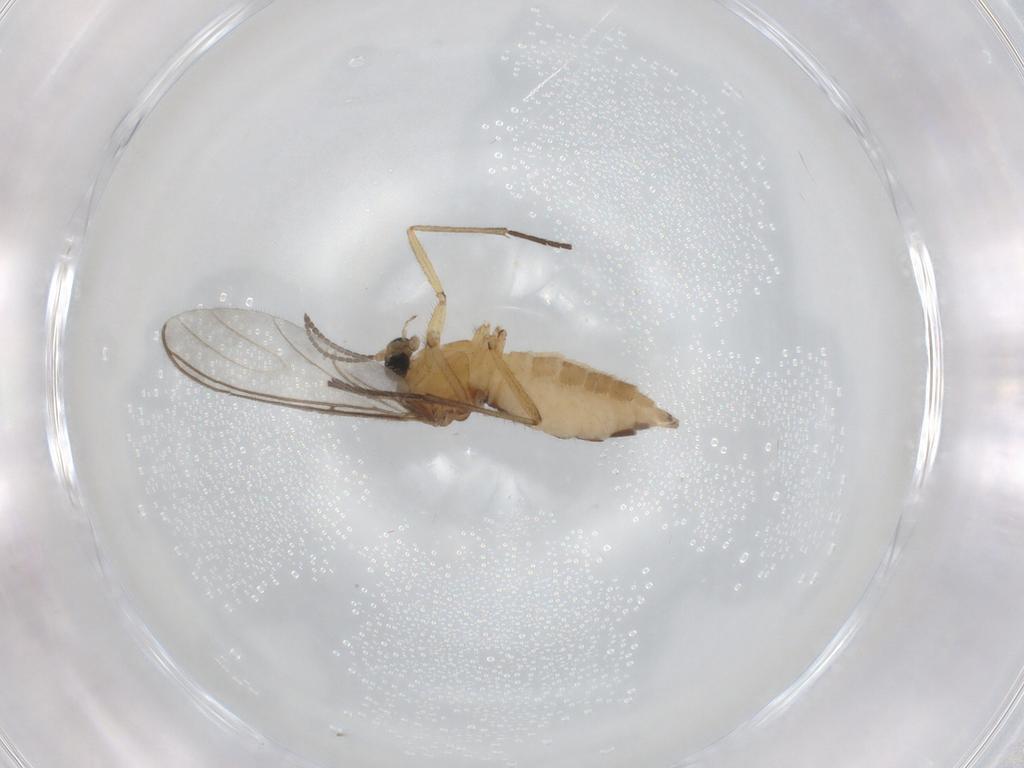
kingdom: Animalia
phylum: Arthropoda
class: Insecta
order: Diptera
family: Sciaridae
